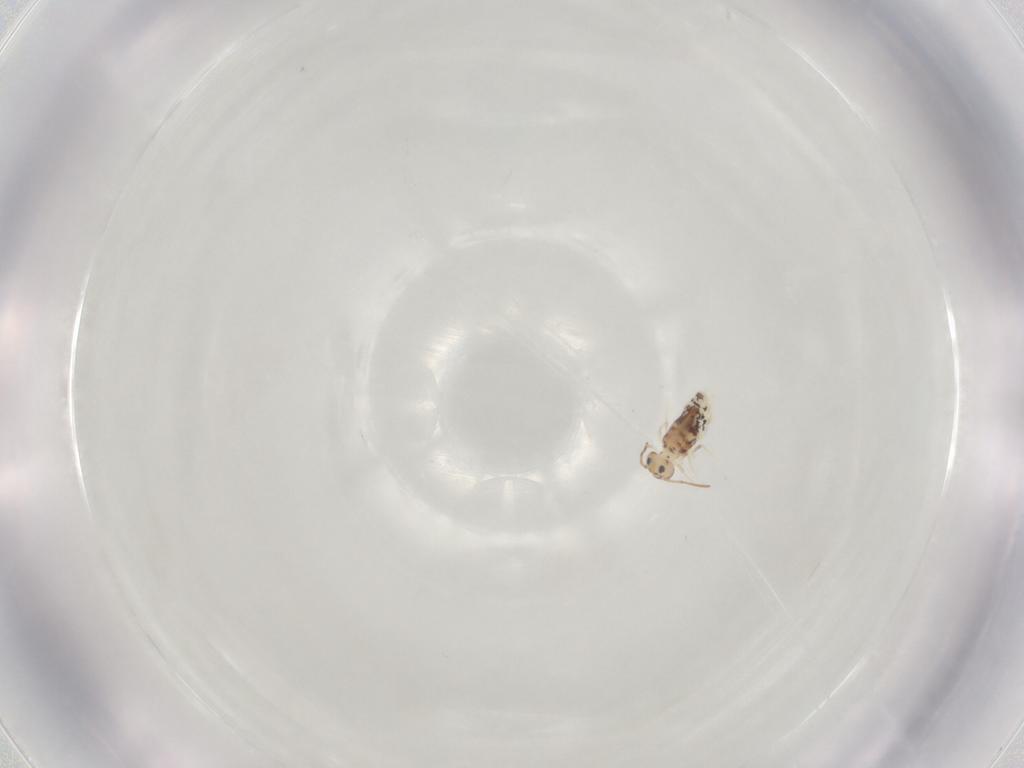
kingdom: Animalia
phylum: Arthropoda
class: Collembola
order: Symphypleona
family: Bourletiellidae
